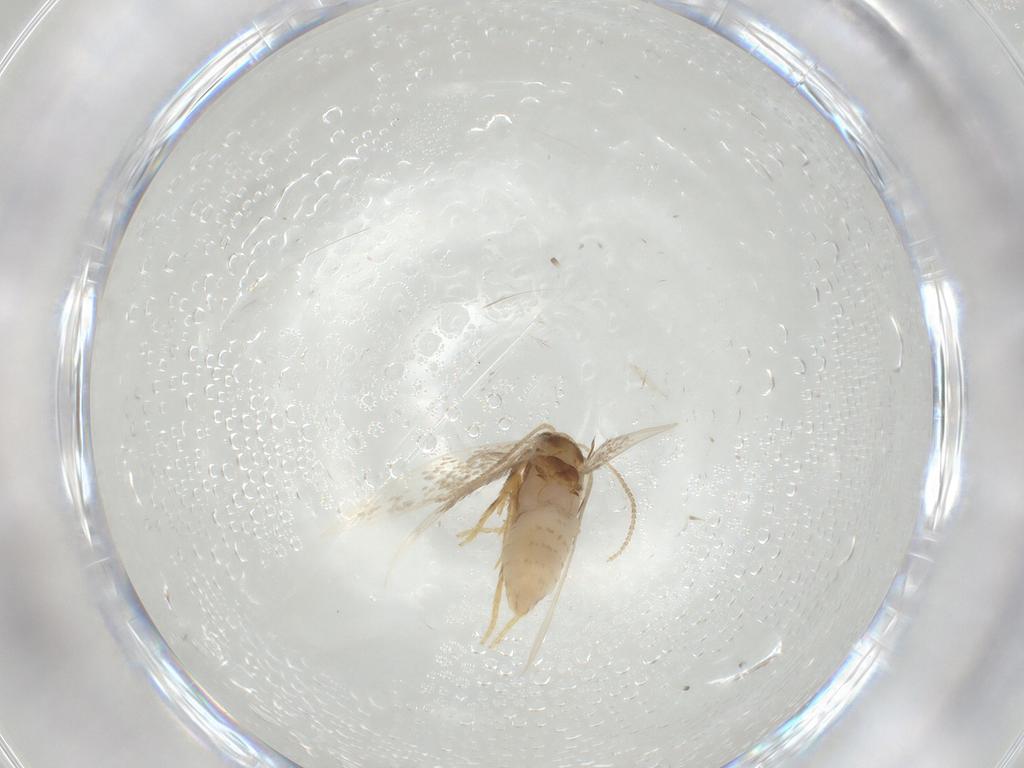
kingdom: Animalia
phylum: Arthropoda
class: Insecta
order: Lepidoptera
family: Nepticulidae
